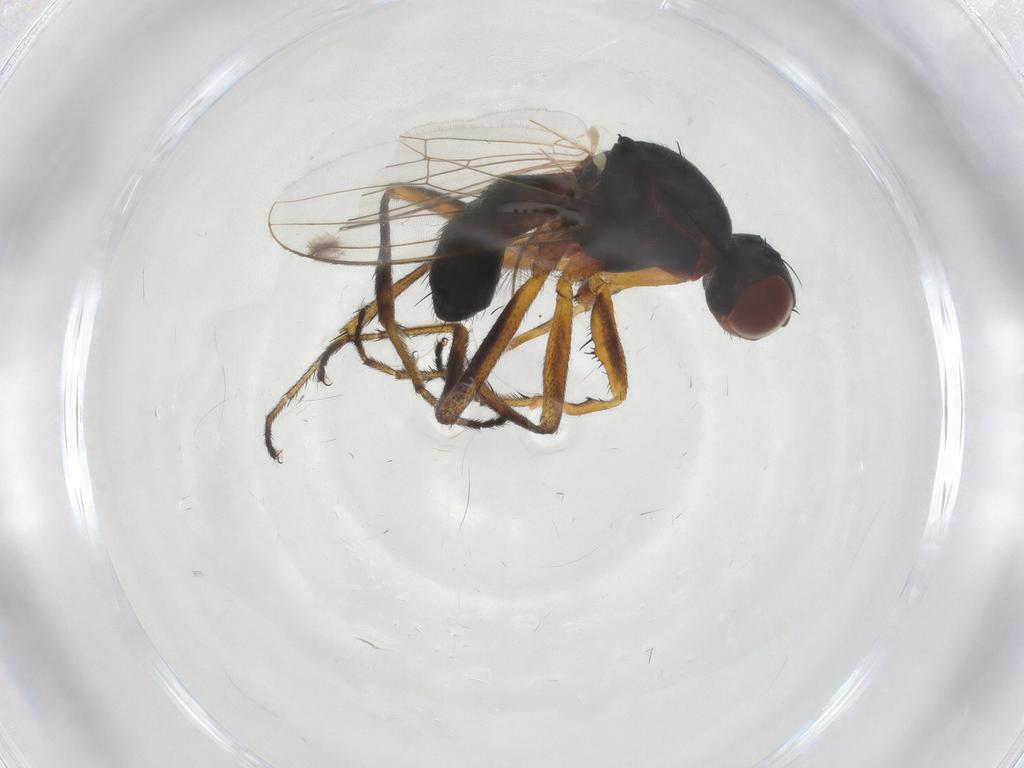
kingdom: Animalia
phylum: Arthropoda
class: Insecta
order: Diptera
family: Sepsidae
